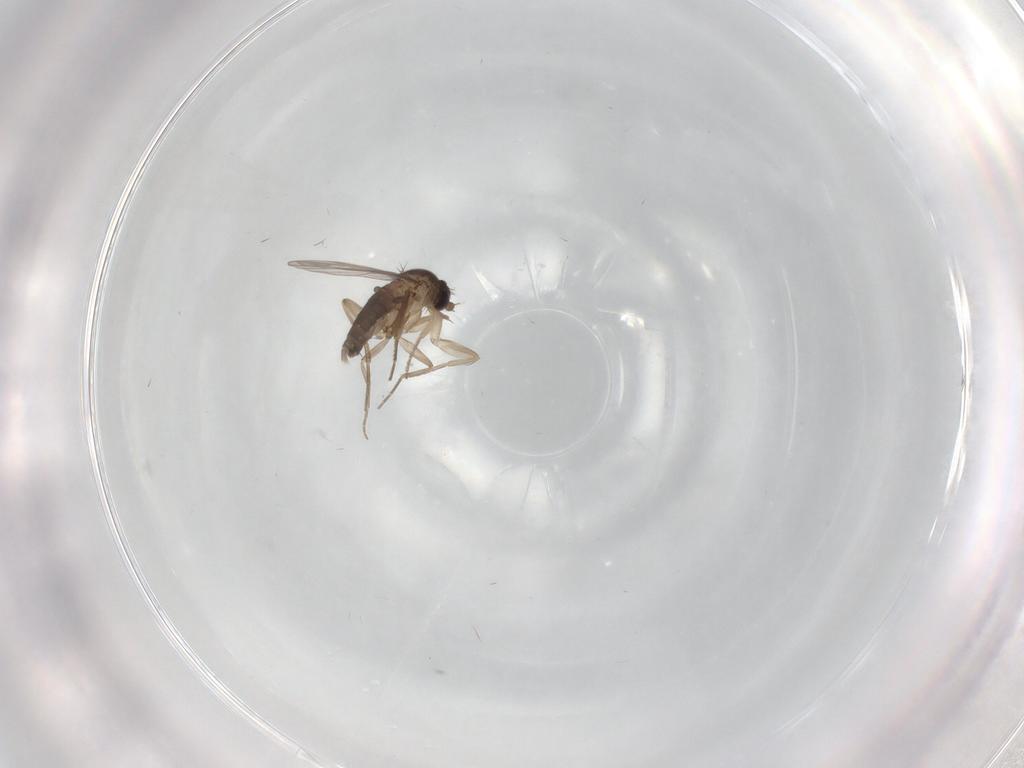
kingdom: Animalia
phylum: Arthropoda
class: Insecta
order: Diptera
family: Phoridae
